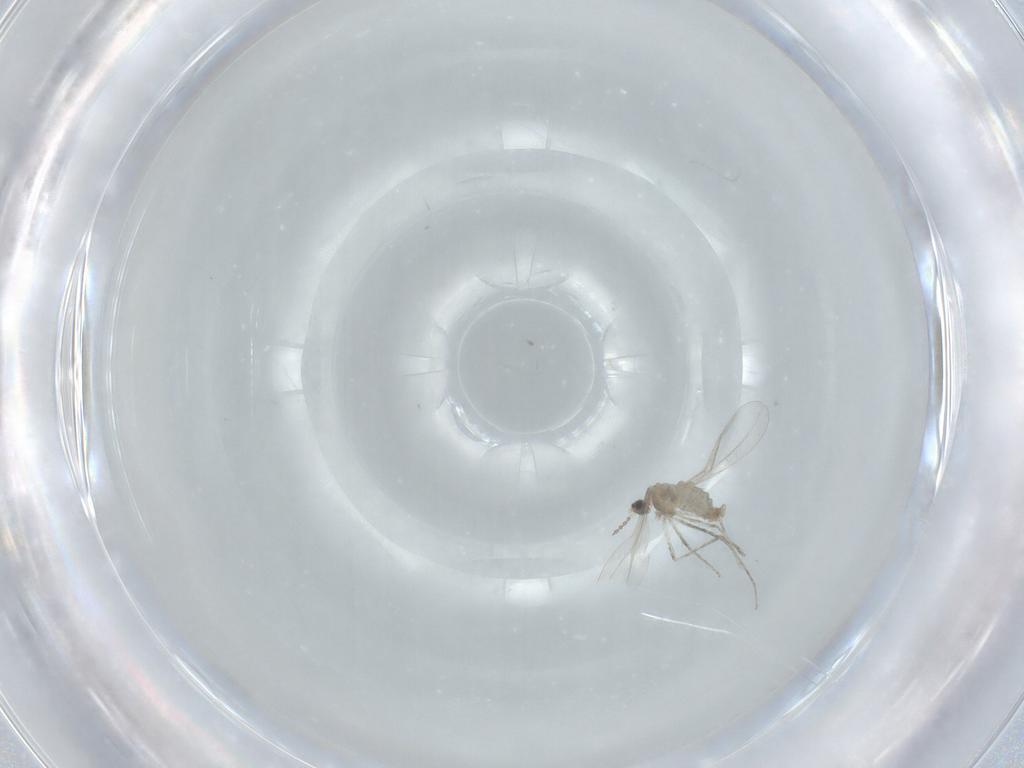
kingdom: Animalia
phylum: Arthropoda
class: Insecta
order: Diptera
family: Cecidomyiidae
